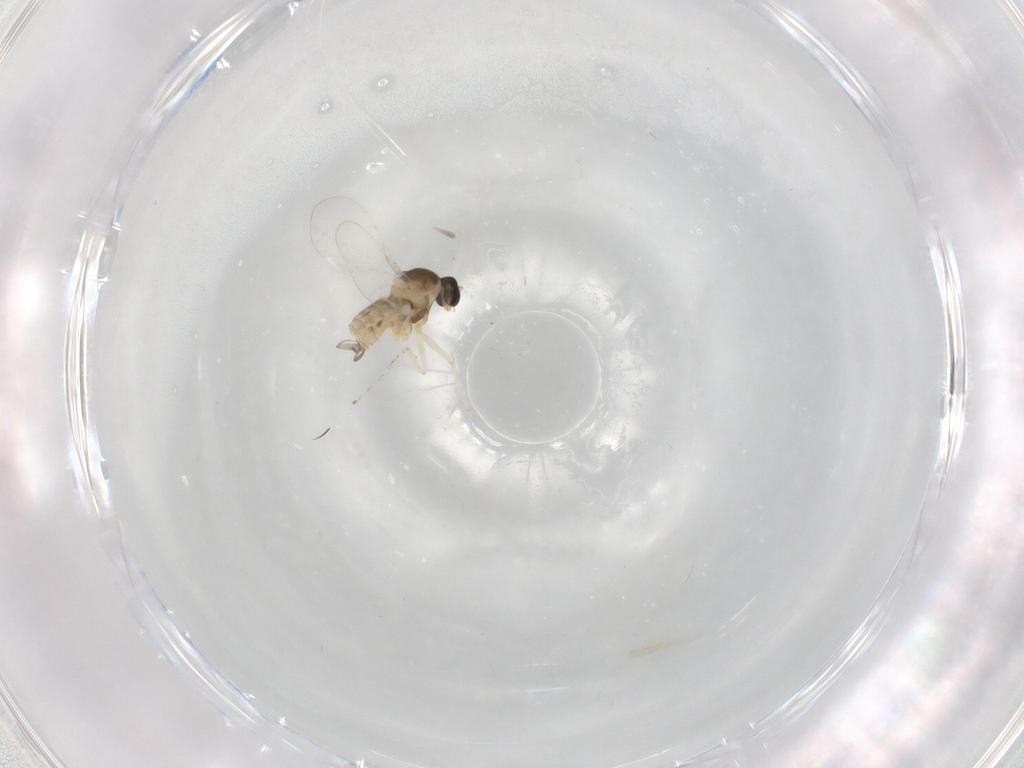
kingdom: Animalia
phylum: Arthropoda
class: Insecta
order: Diptera
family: Cecidomyiidae
